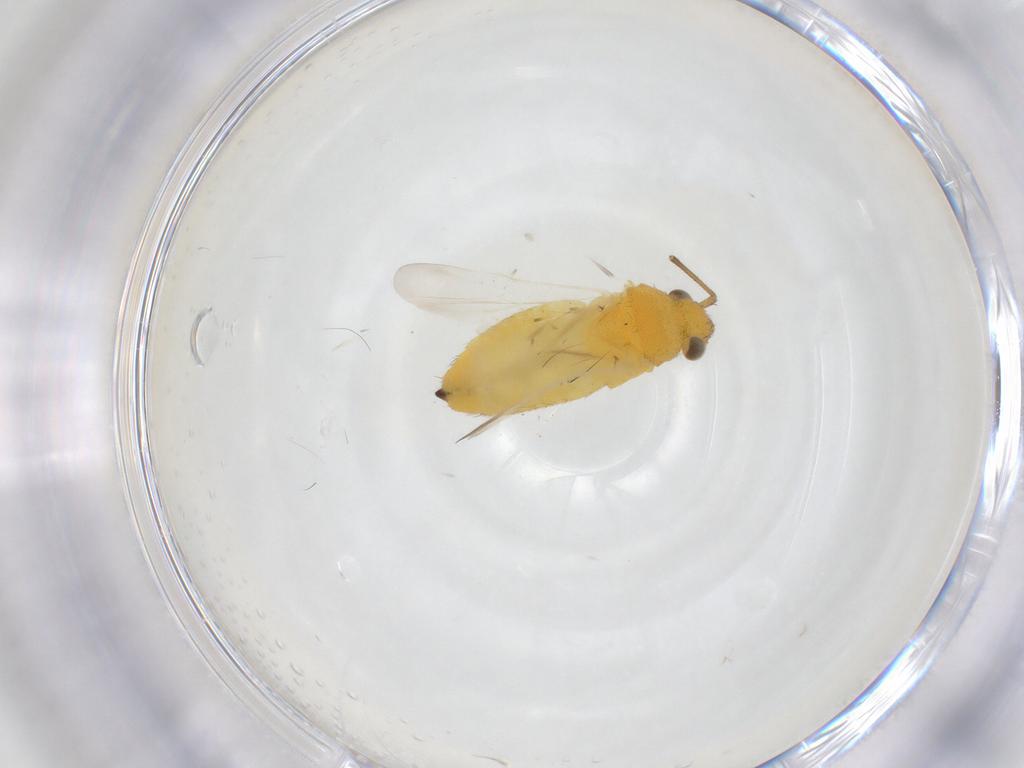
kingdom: Animalia
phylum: Arthropoda
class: Insecta
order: Hemiptera
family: Miridae
